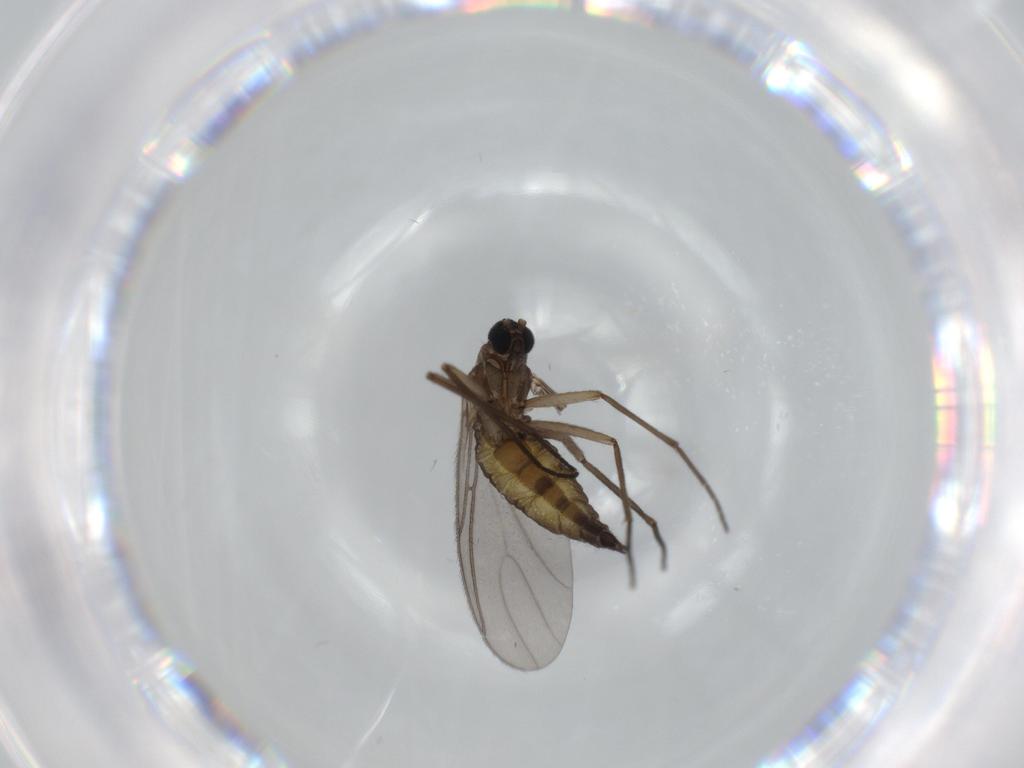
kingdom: Animalia
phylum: Arthropoda
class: Insecta
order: Diptera
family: Sciaridae
